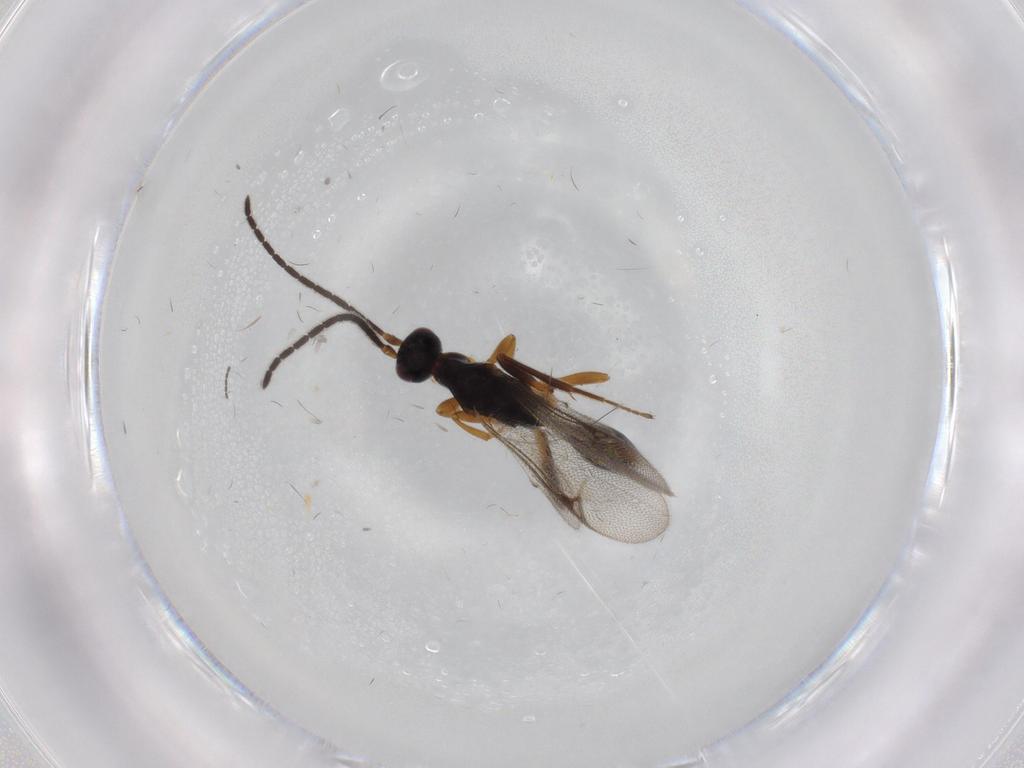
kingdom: Animalia
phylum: Arthropoda
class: Insecta
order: Hymenoptera
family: Proctotrupidae
